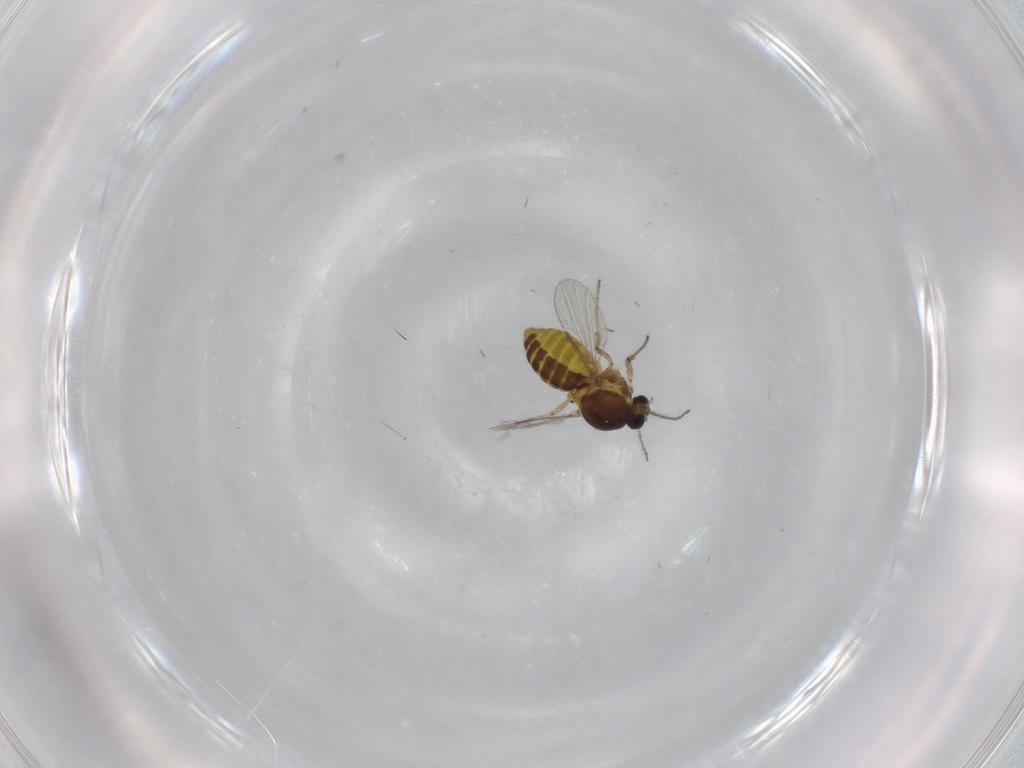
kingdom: Animalia
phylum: Arthropoda
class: Insecta
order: Diptera
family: Ceratopogonidae
